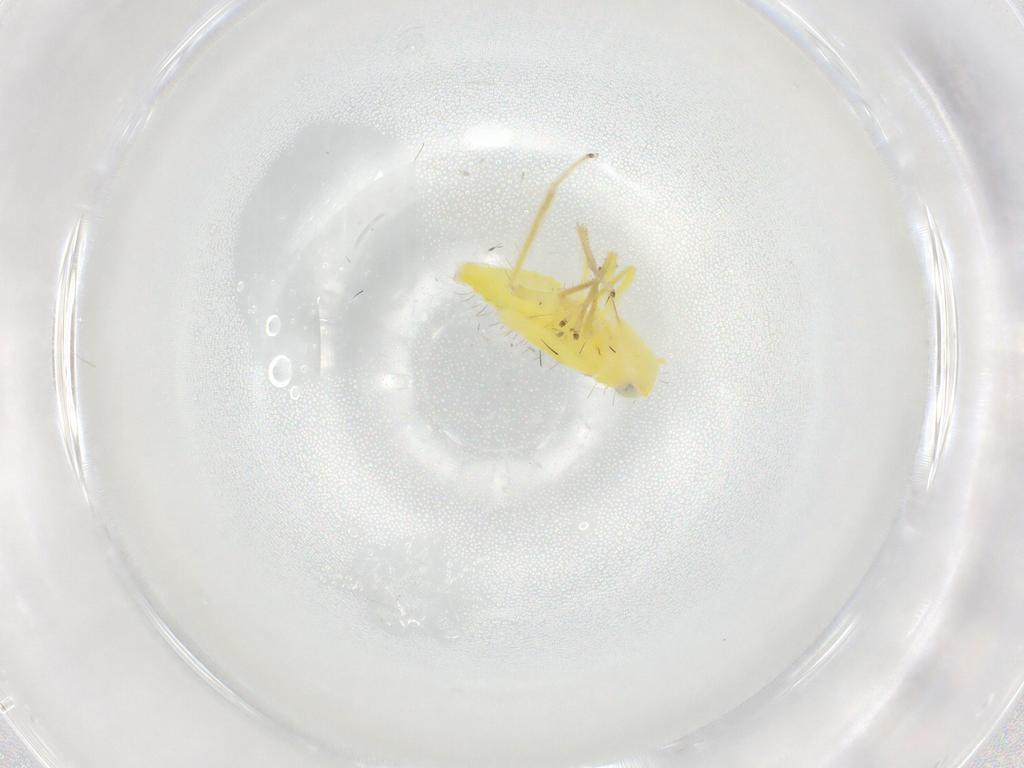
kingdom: Animalia
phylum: Arthropoda
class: Insecta
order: Hemiptera
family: Cicadellidae
